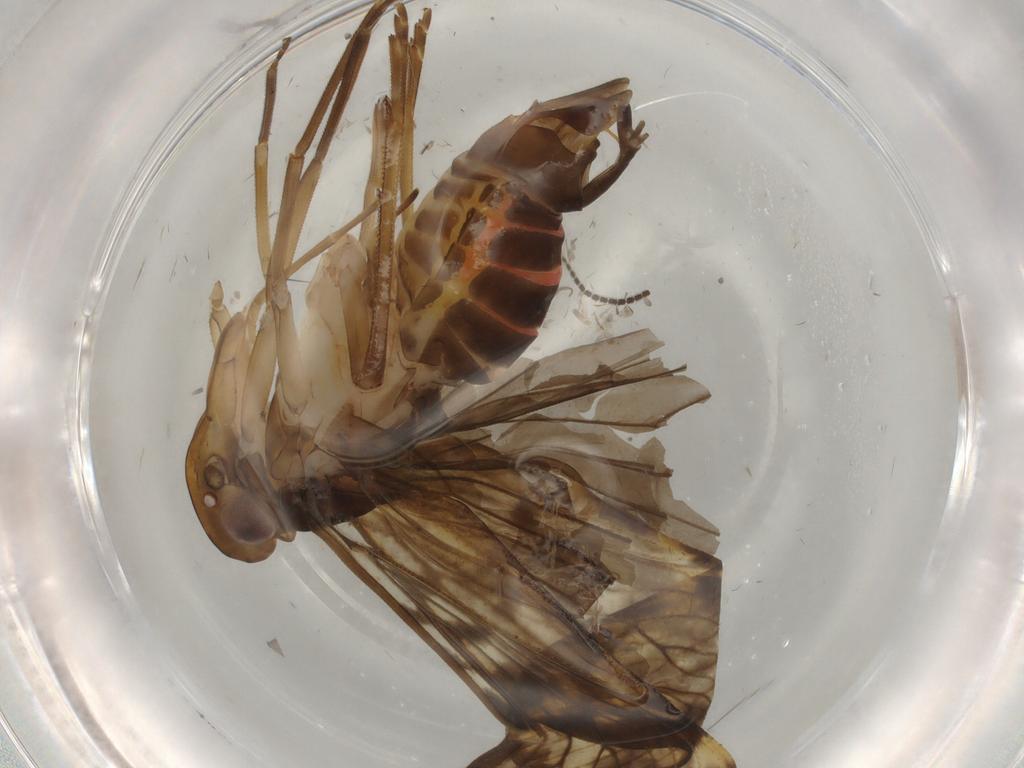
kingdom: Animalia
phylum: Arthropoda
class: Insecta
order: Hemiptera
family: Cixiidae
